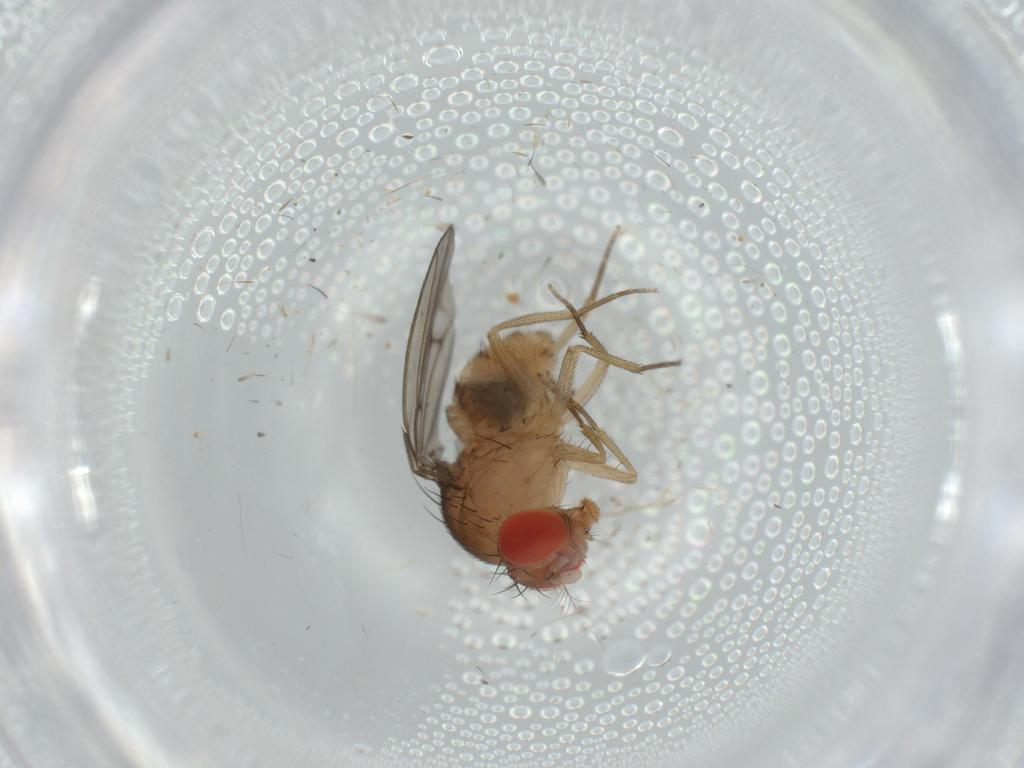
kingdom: Animalia
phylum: Arthropoda
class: Insecta
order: Diptera
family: Drosophilidae
